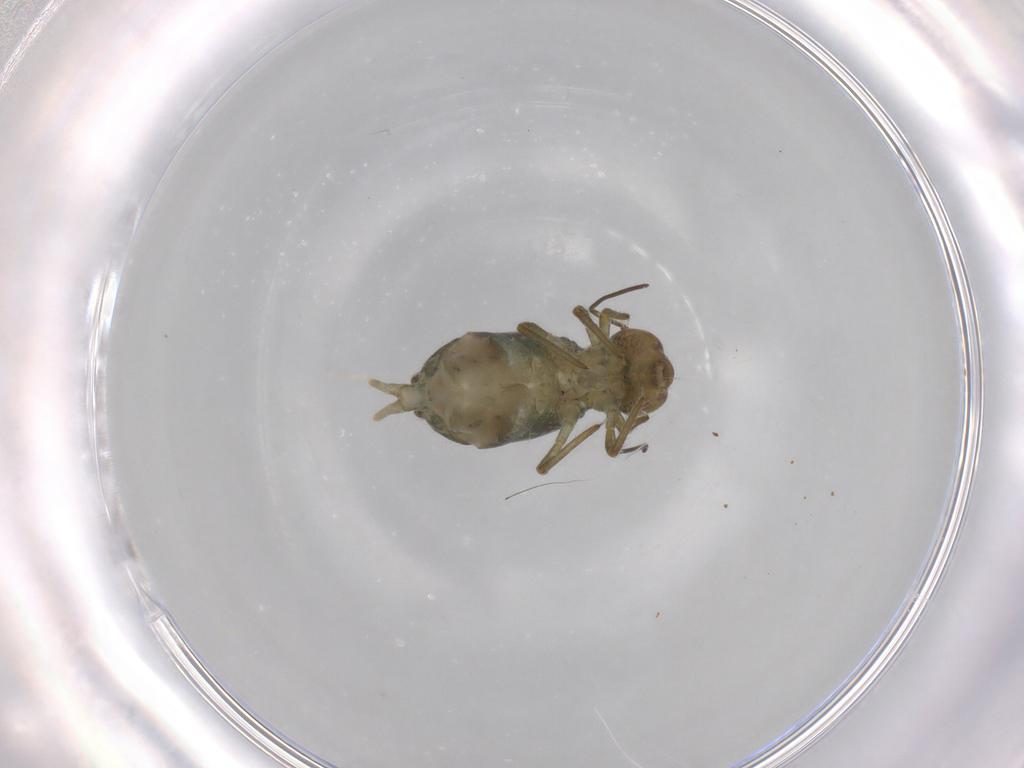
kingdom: Animalia
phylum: Arthropoda
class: Collembola
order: Symphypleona
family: Sminthuridae
